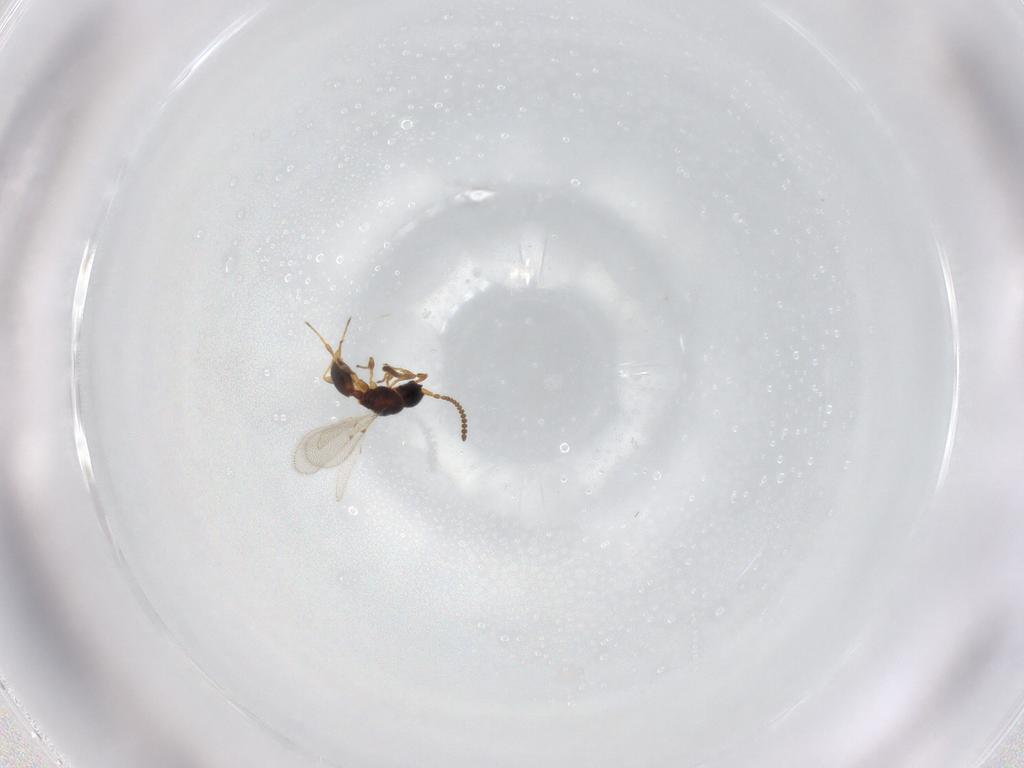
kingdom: Animalia
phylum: Arthropoda
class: Insecta
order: Hymenoptera
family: Diapriidae
